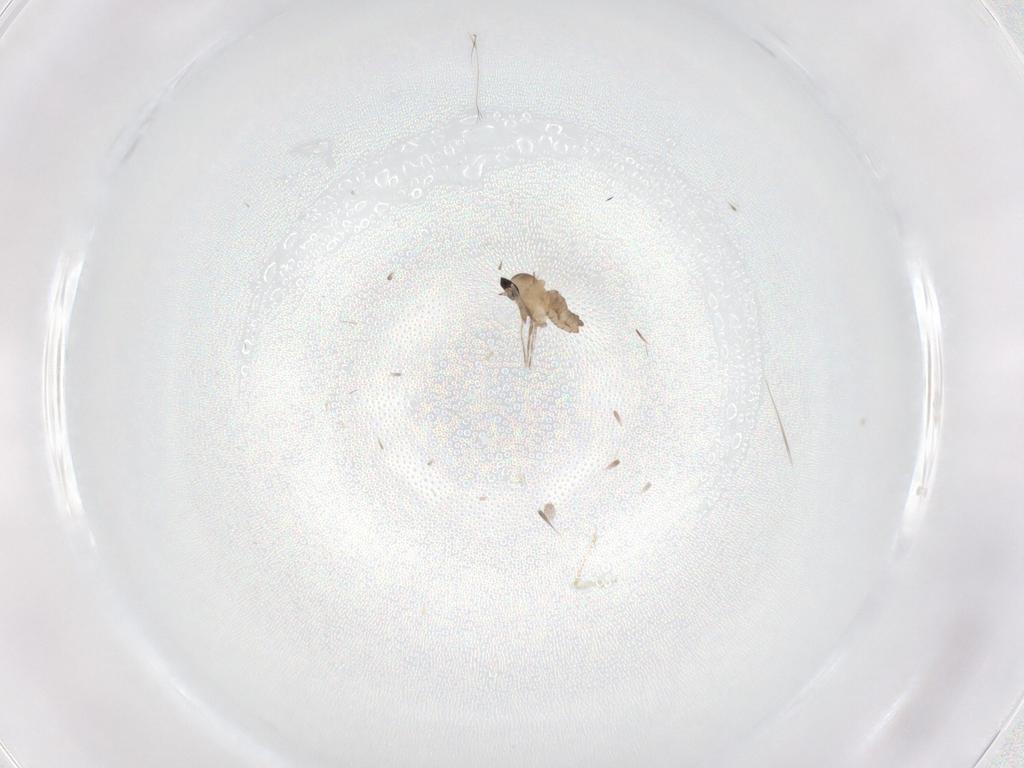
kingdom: Animalia
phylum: Arthropoda
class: Insecta
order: Diptera
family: Cecidomyiidae
